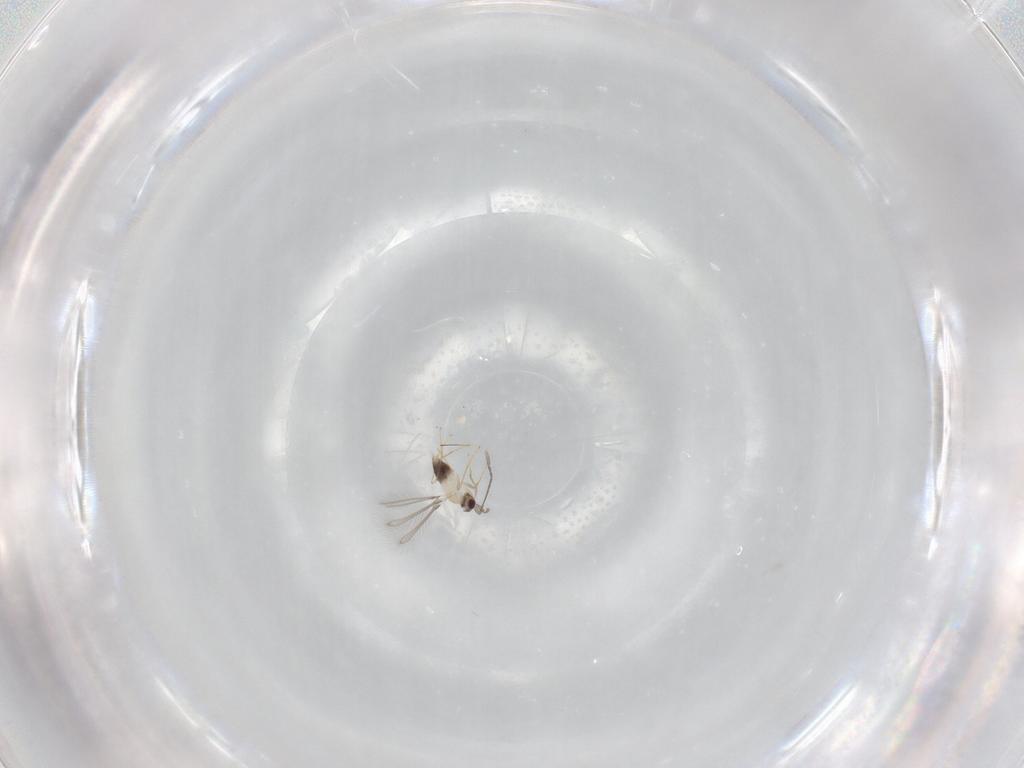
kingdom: Animalia
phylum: Arthropoda
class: Insecta
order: Hymenoptera
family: Mymaridae
